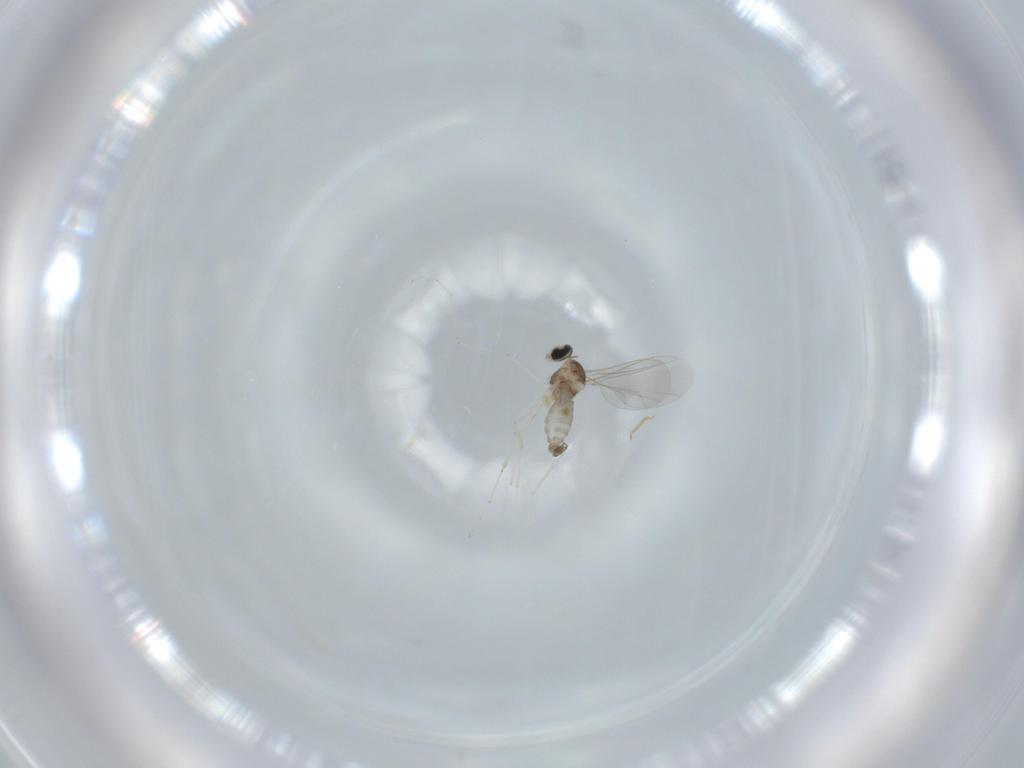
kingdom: Animalia
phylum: Arthropoda
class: Insecta
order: Diptera
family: Cecidomyiidae
